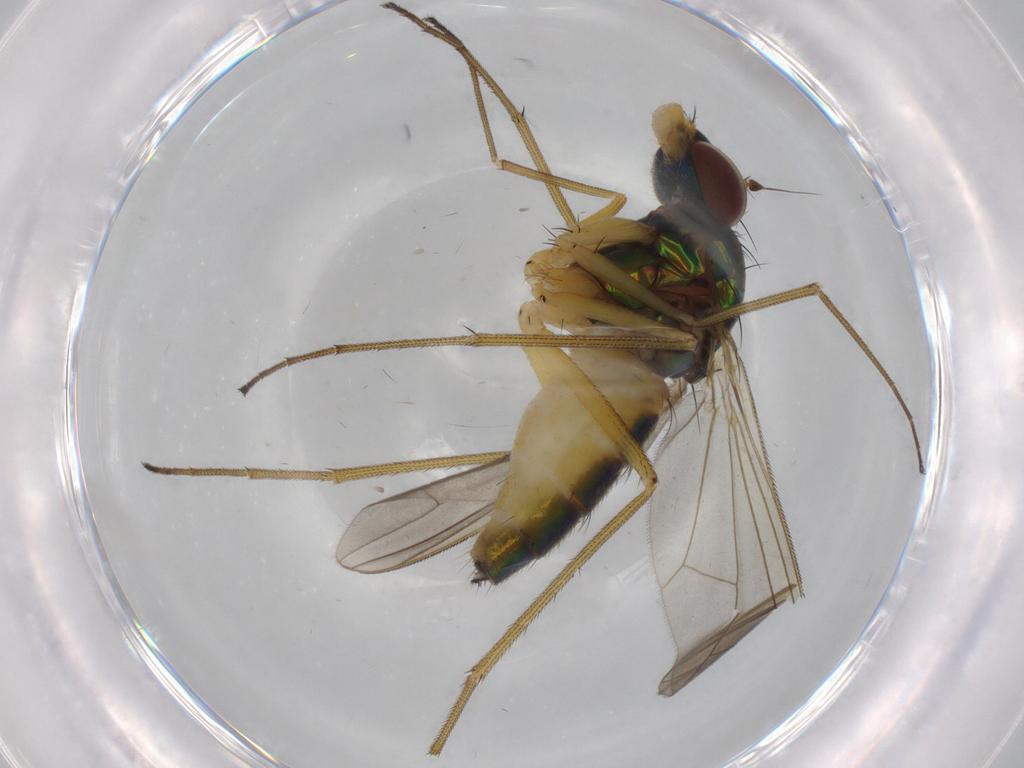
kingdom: Animalia
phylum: Arthropoda
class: Insecta
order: Diptera
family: Dolichopodidae
